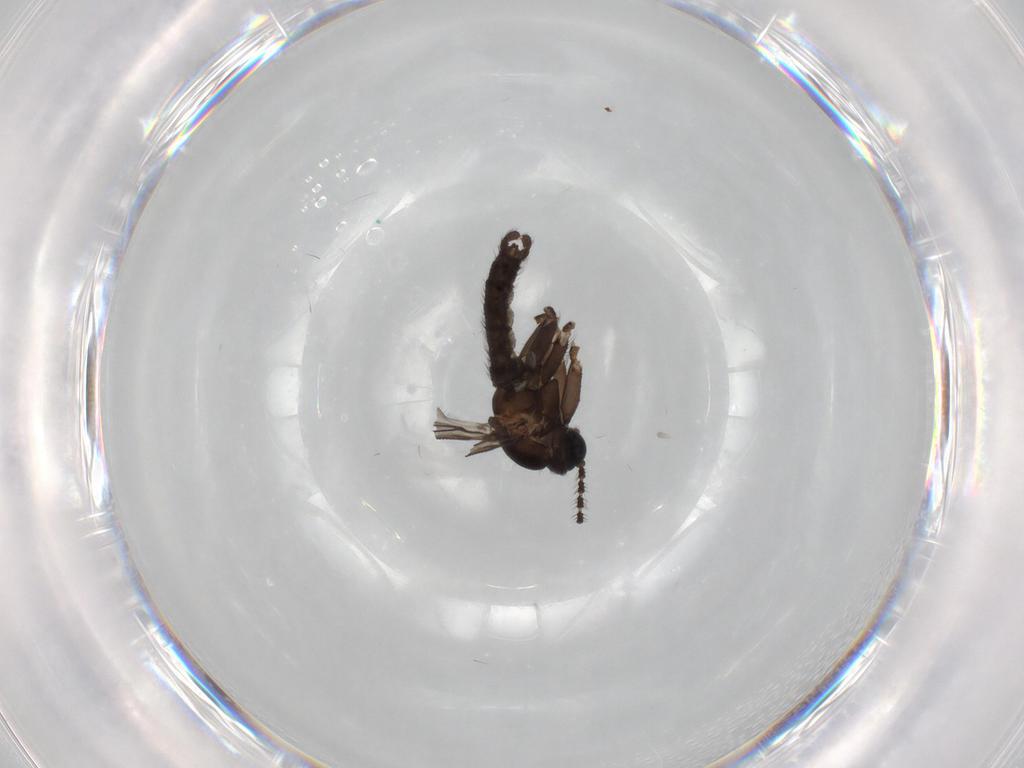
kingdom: Animalia
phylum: Arthropoda
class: Insecta
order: Diptera
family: Sciaridae
